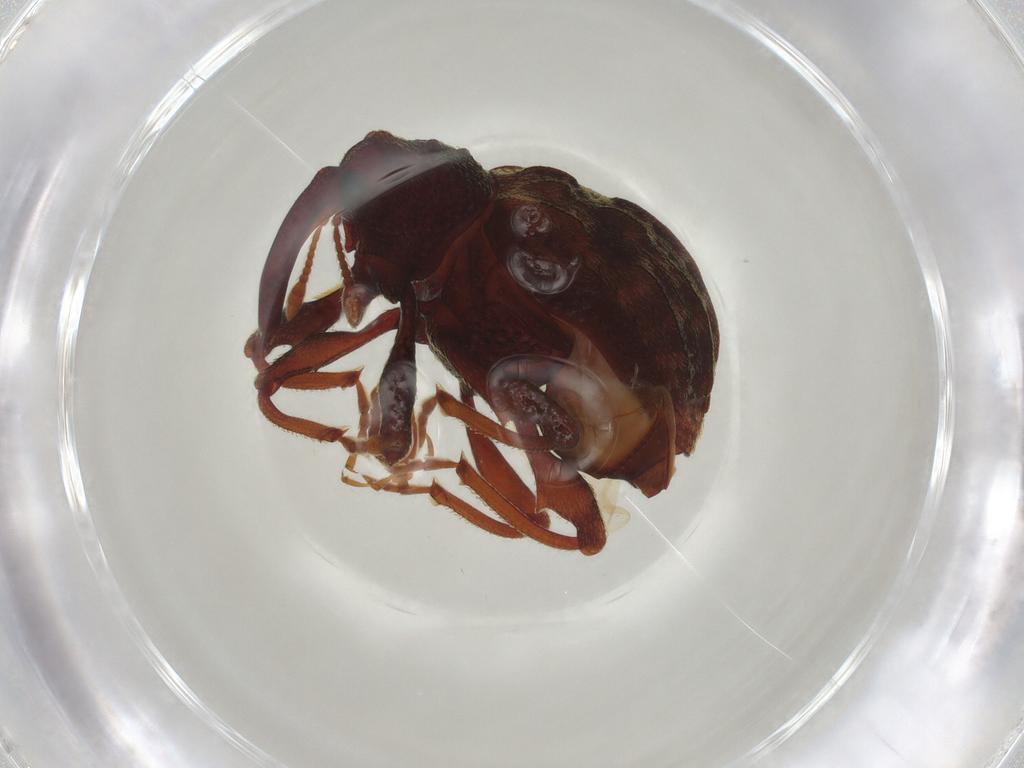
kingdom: Animalia
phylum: Arthropoda
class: Insecta
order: Coleoptera
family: Curculionidae
